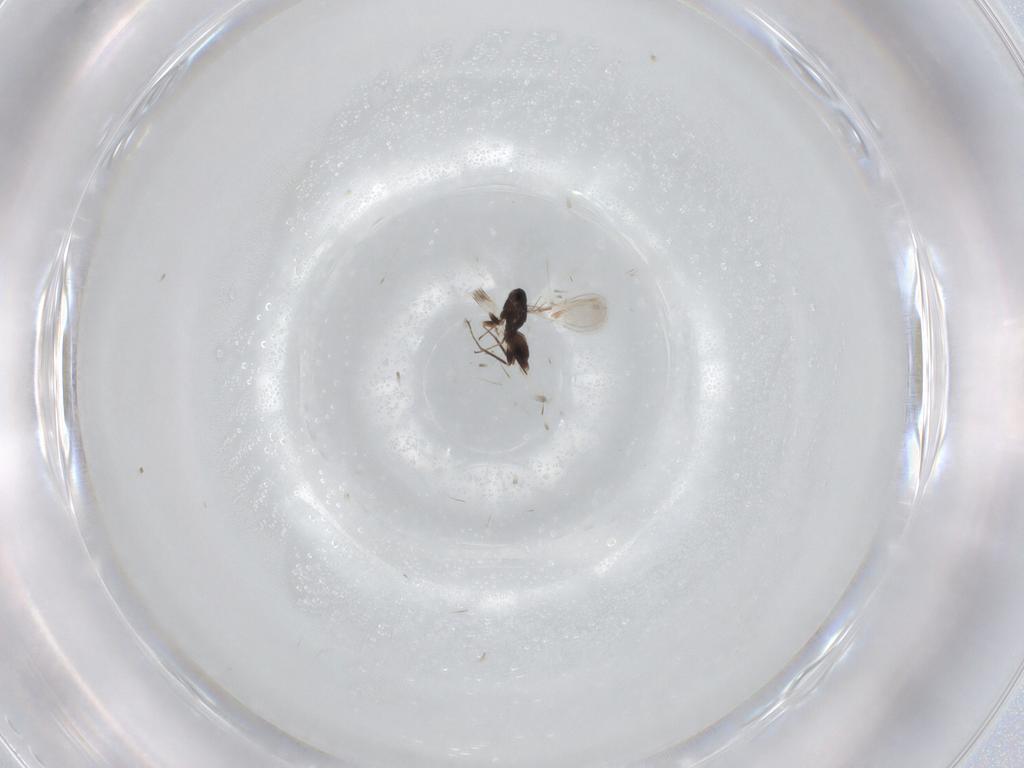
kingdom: Animalia
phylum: Arthropoda
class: Insecta
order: Hymenoptera
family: Mymaridae
